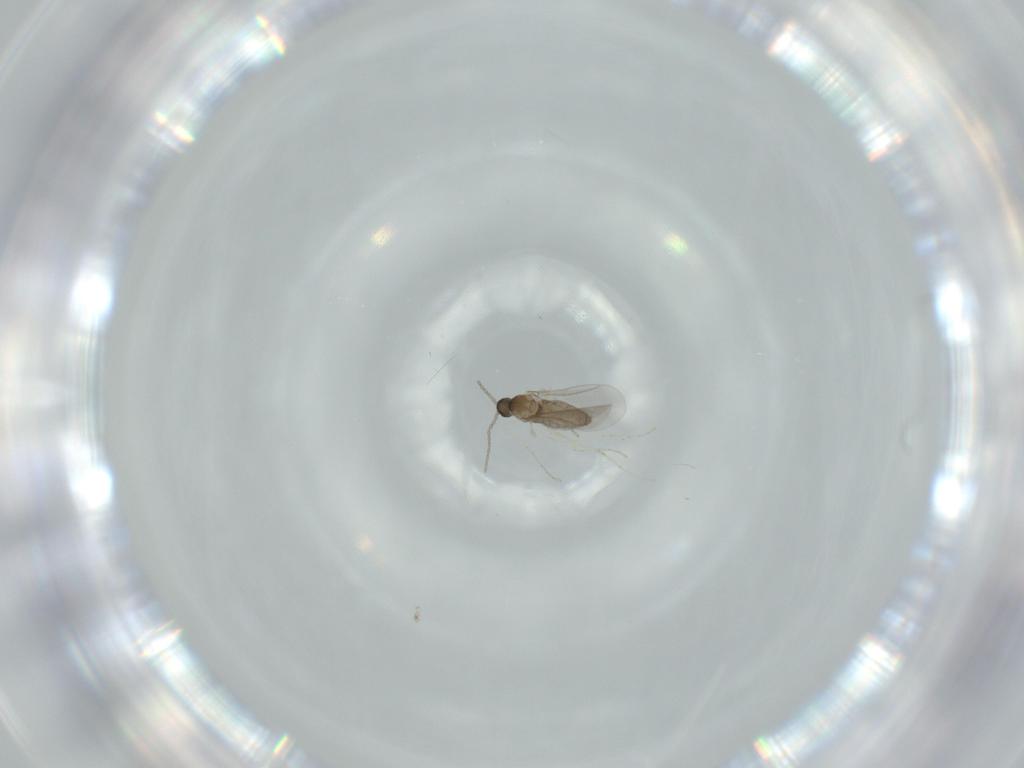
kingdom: Animalia
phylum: Arthropoda
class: Insecta
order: Diptera
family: Cecidomyiidae
